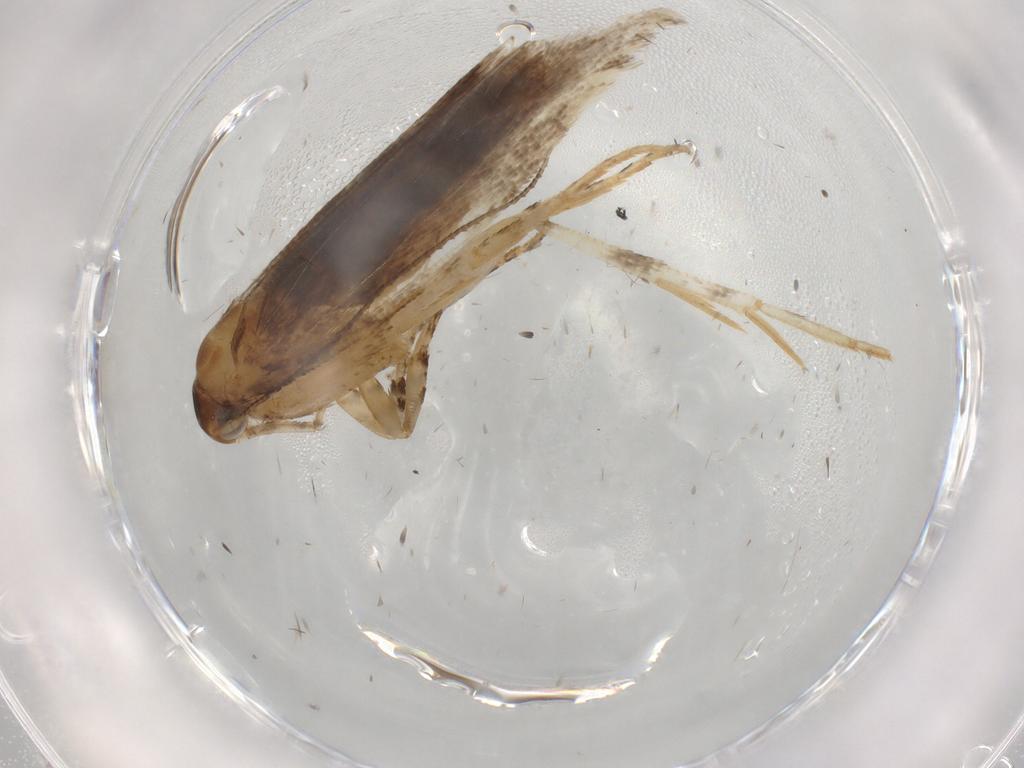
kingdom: Animalia
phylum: Arthropoda
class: Insecta
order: Lepidoptera
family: Gelechiidae
